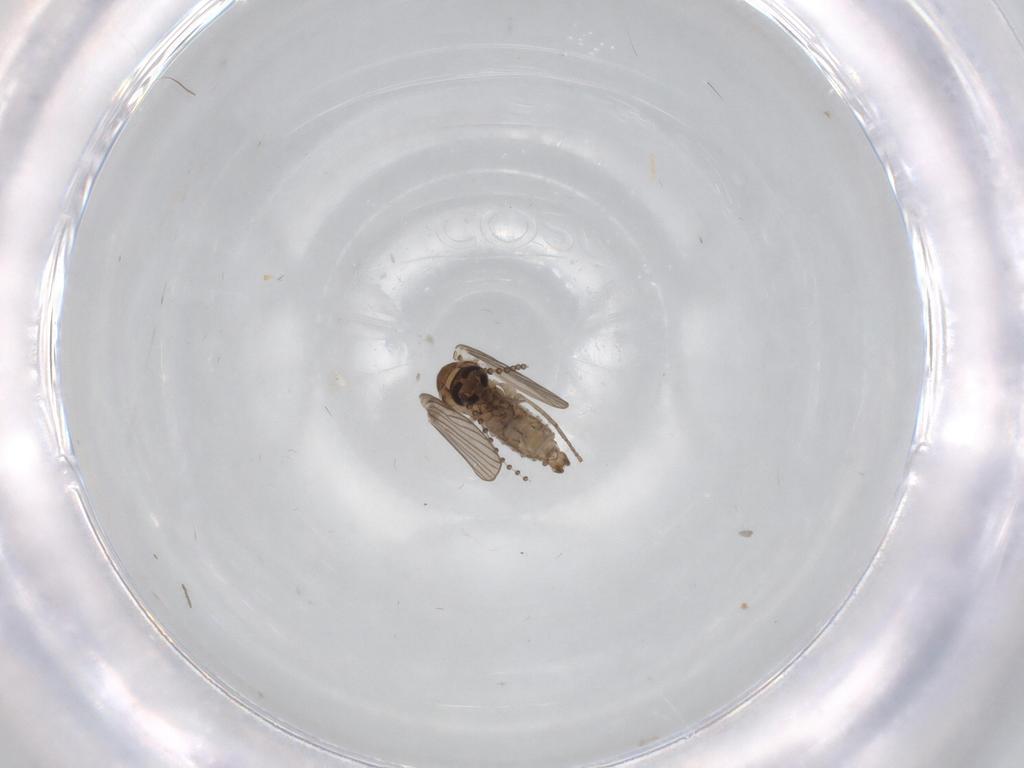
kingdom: Animalia
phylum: Arthropoda
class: Insecta
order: Diptera
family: Psychodidae
